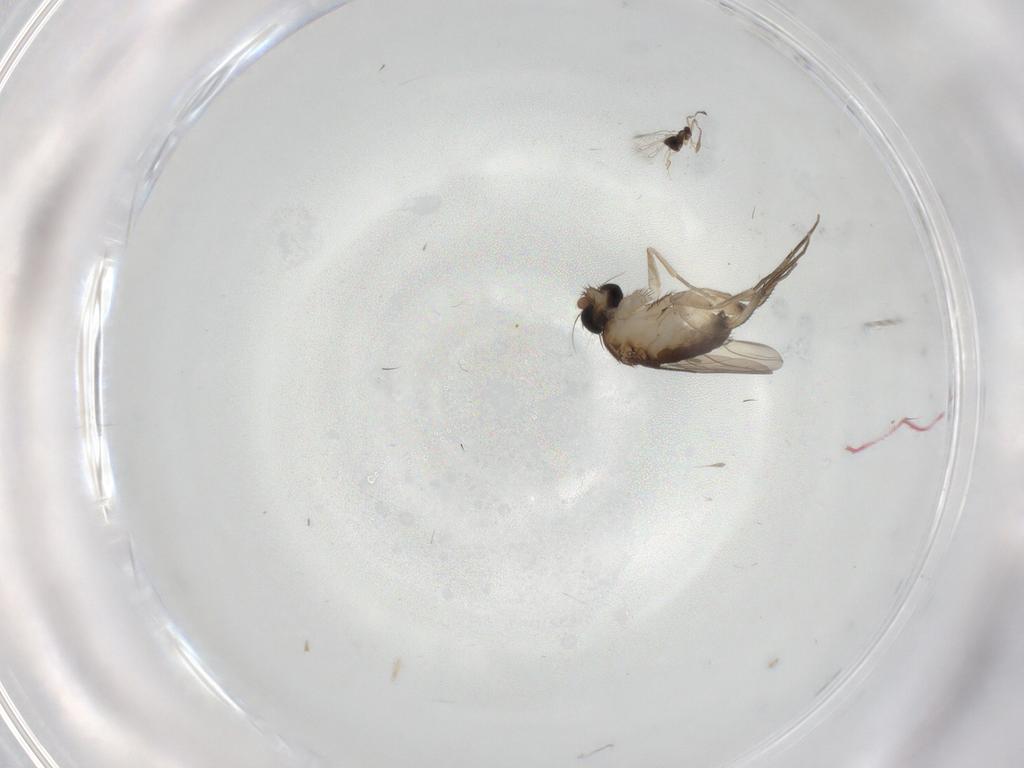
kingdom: Animalia
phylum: Arthropoda
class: Insecta
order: Diptera
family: Phoridae
